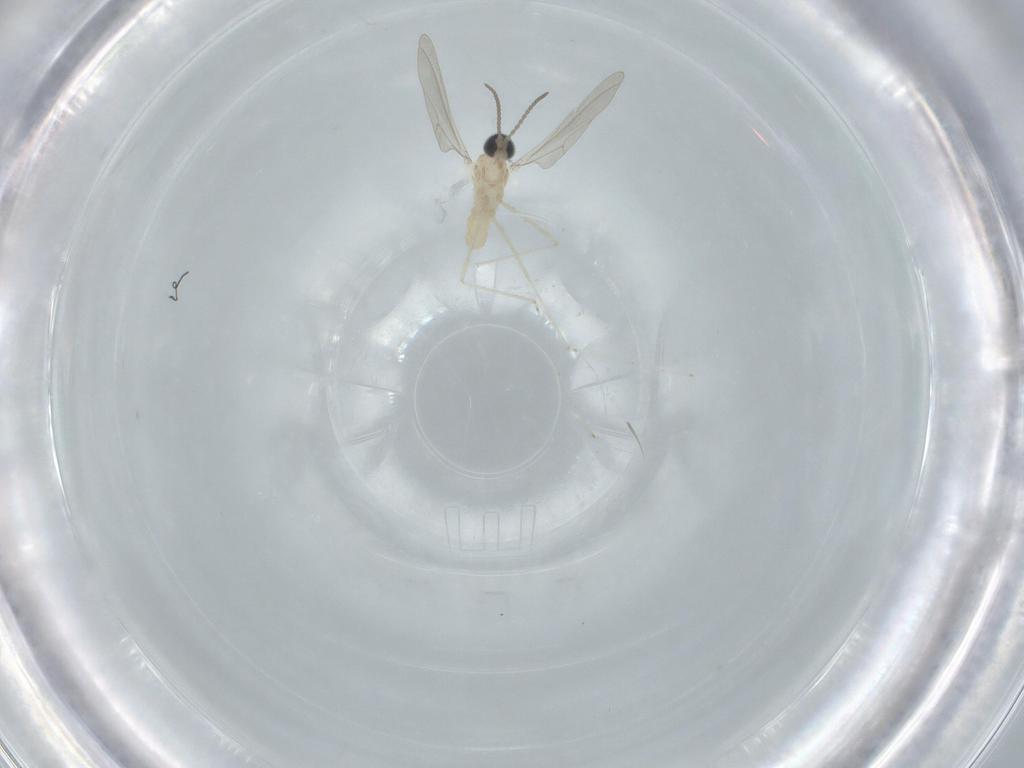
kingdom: Animalia
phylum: Arthropoda
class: Insecta
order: Diptera
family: Cecidomyiidae
